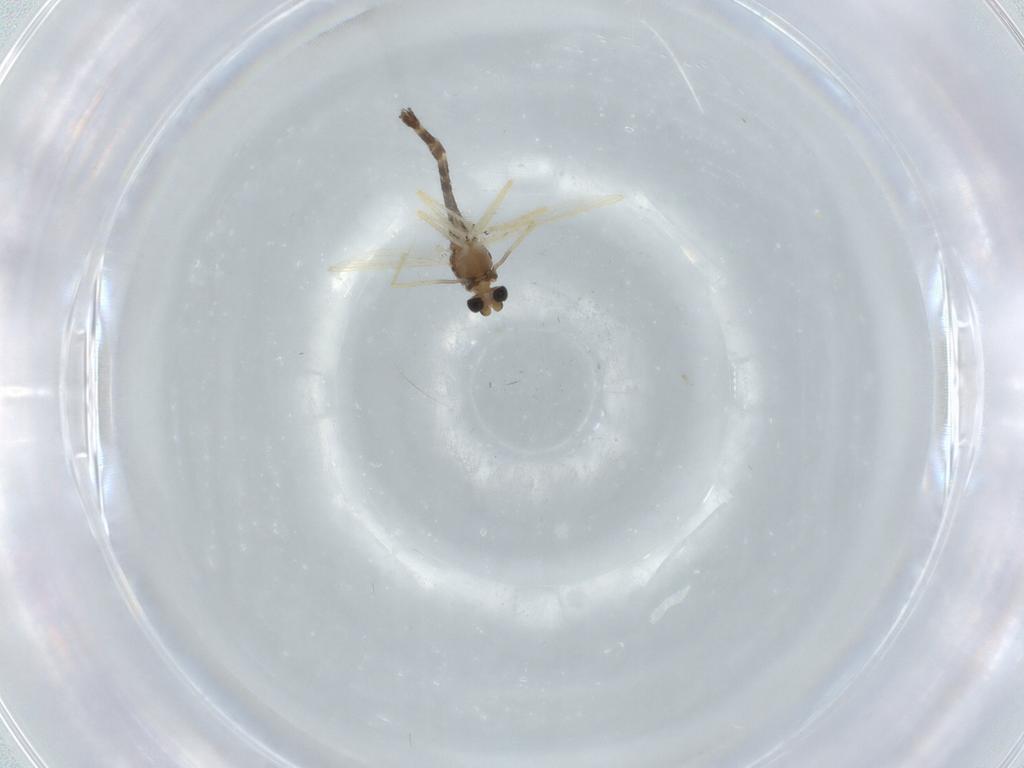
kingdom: Animalia
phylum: Arthropoda
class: Insecta
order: Diptera
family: Chironomidae
